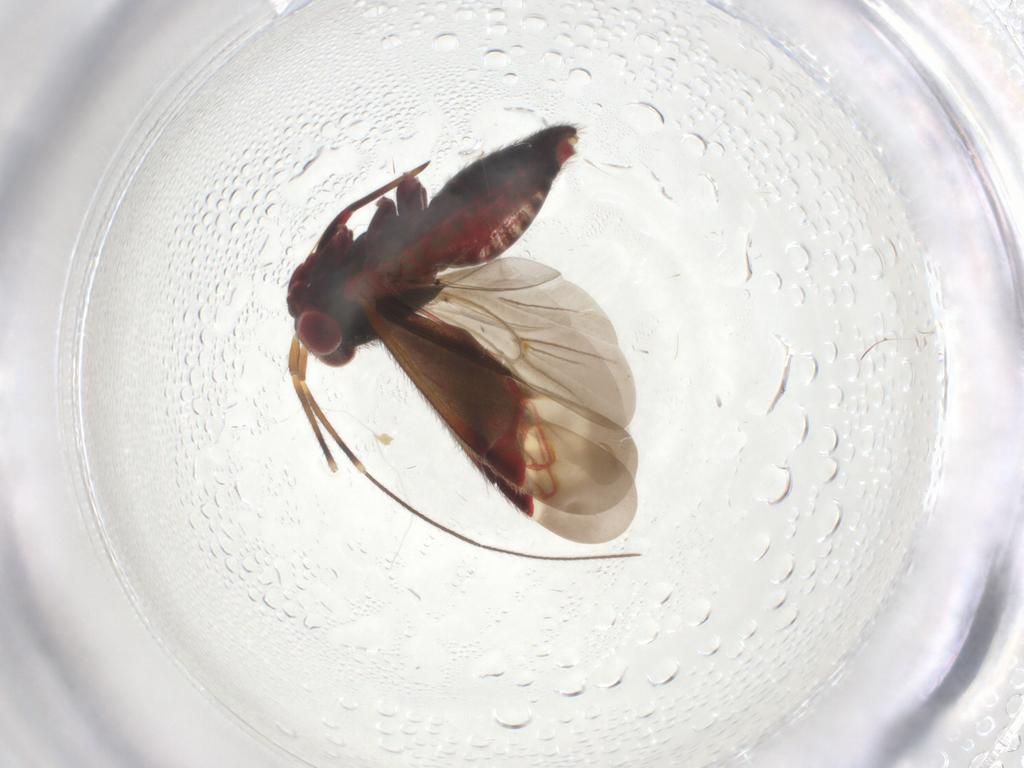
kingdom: Animalia
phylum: Arthropoda
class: Insecta
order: Hemiptera
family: Miridae
